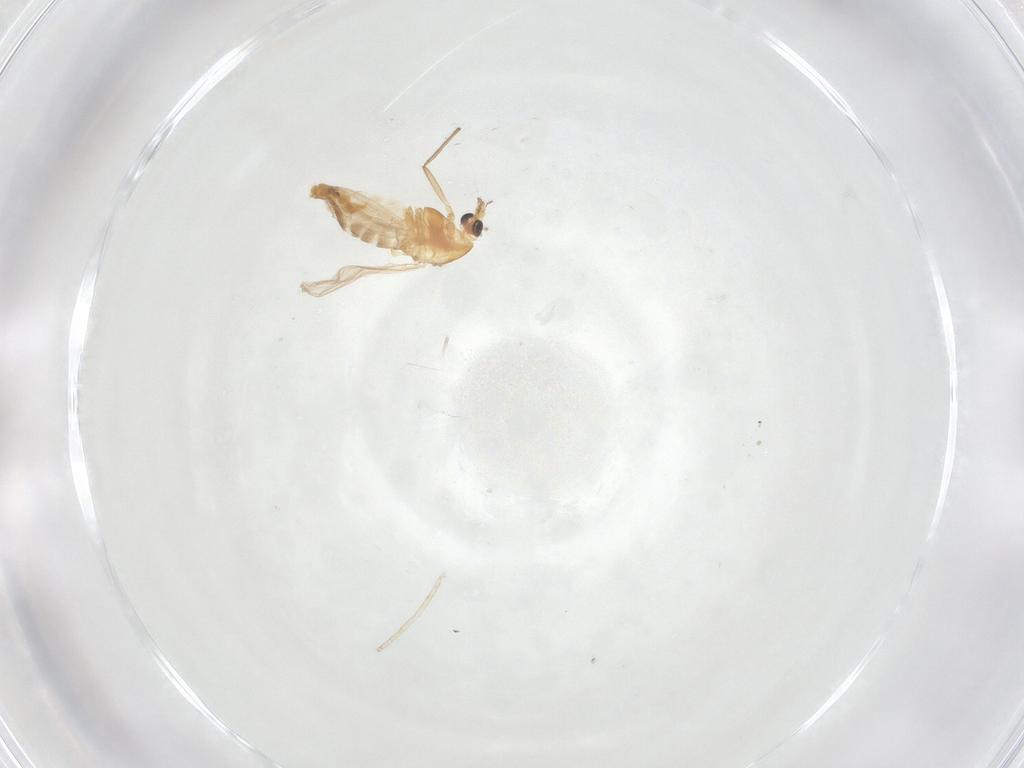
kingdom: Animalia
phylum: Arthropoda
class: Insecta
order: Diptera
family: Chironomidae
